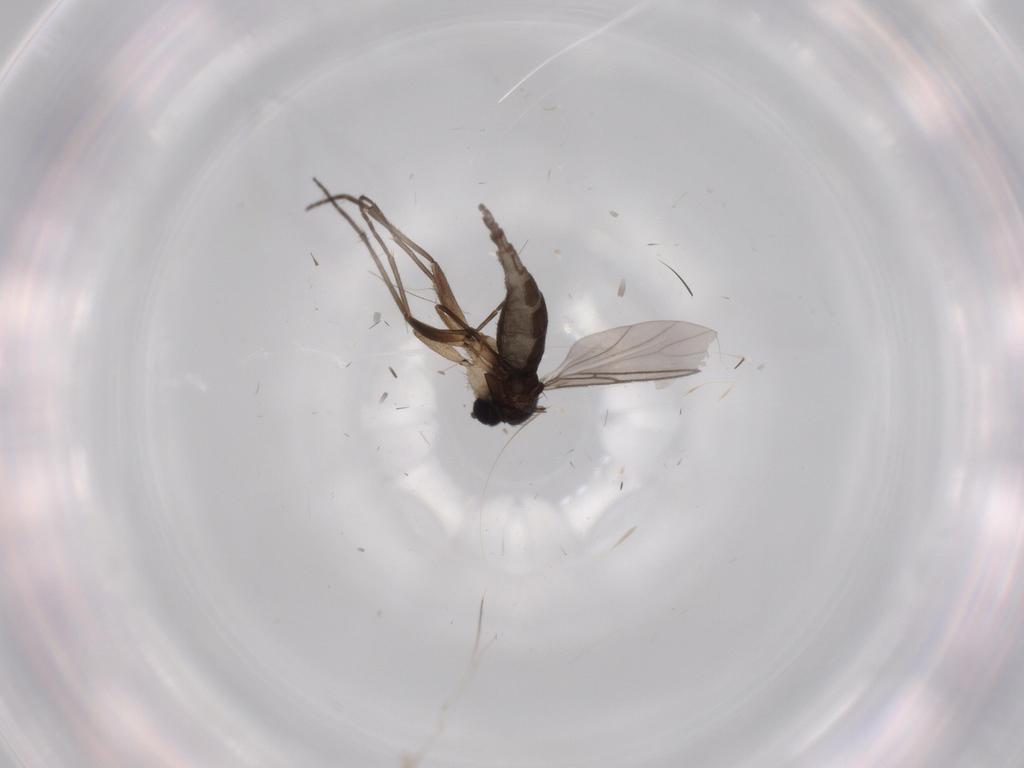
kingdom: Animalia
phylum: Arthropoda
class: Insecta
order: Diptera
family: Sciaridae
